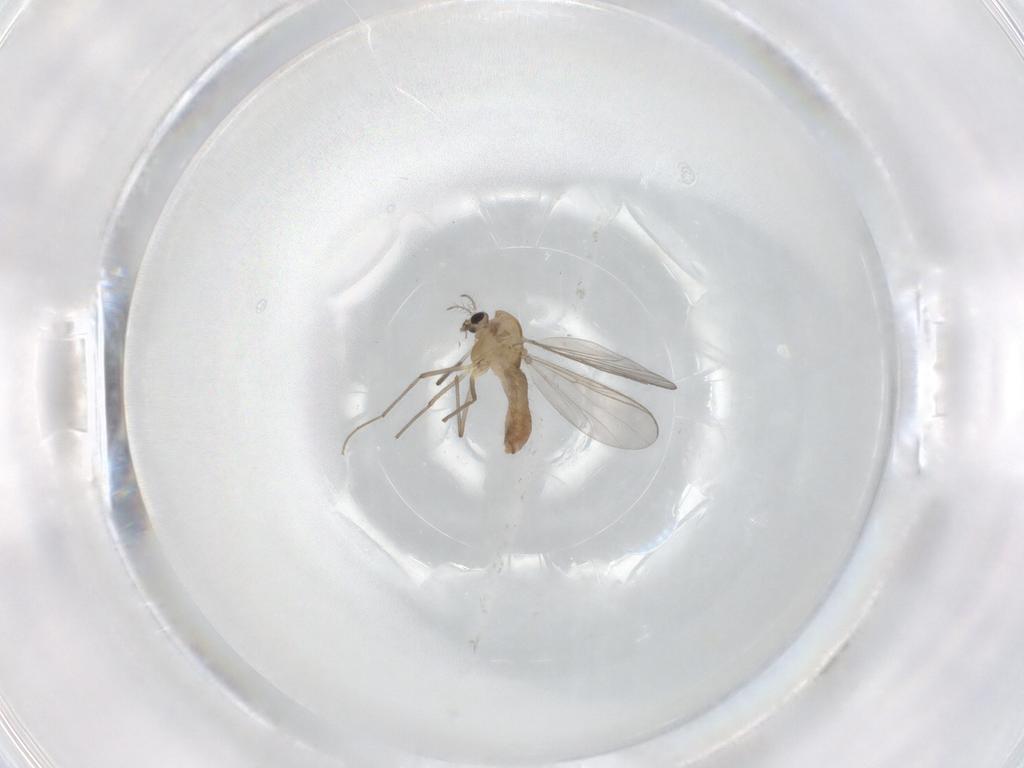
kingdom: Animalia
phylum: Arthropoda
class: Insecta
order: Diptera
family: Chironomidae
